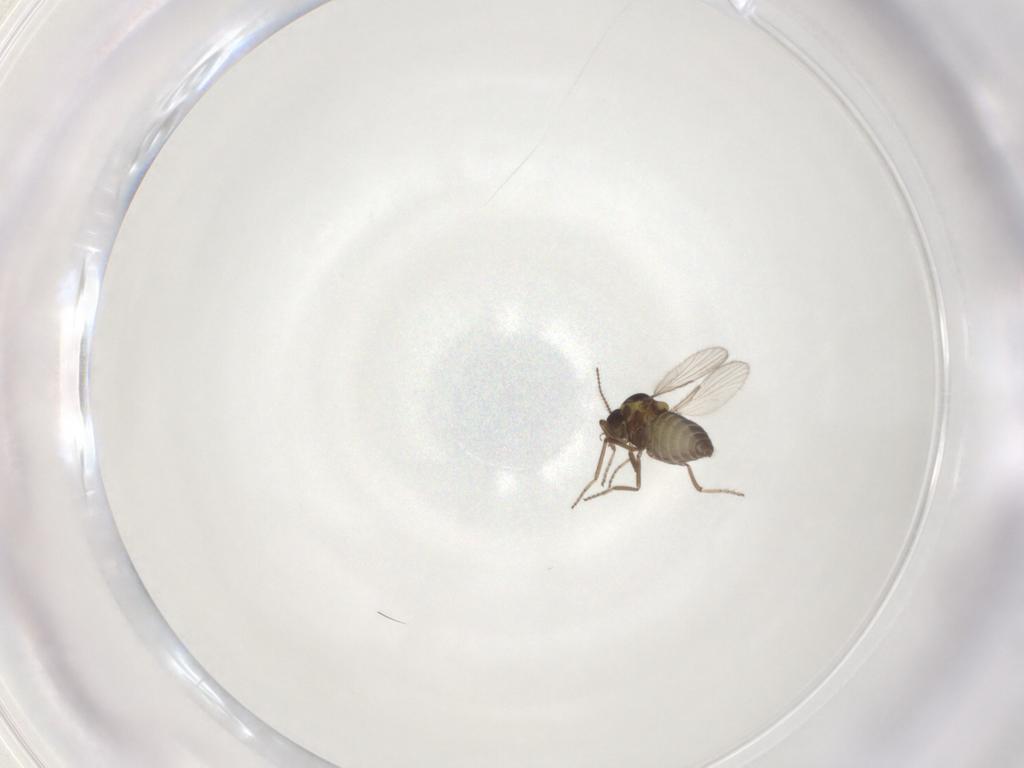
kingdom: Animalia
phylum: Arthropoda
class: Insecta
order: Diptera
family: Ceratopogonidae
